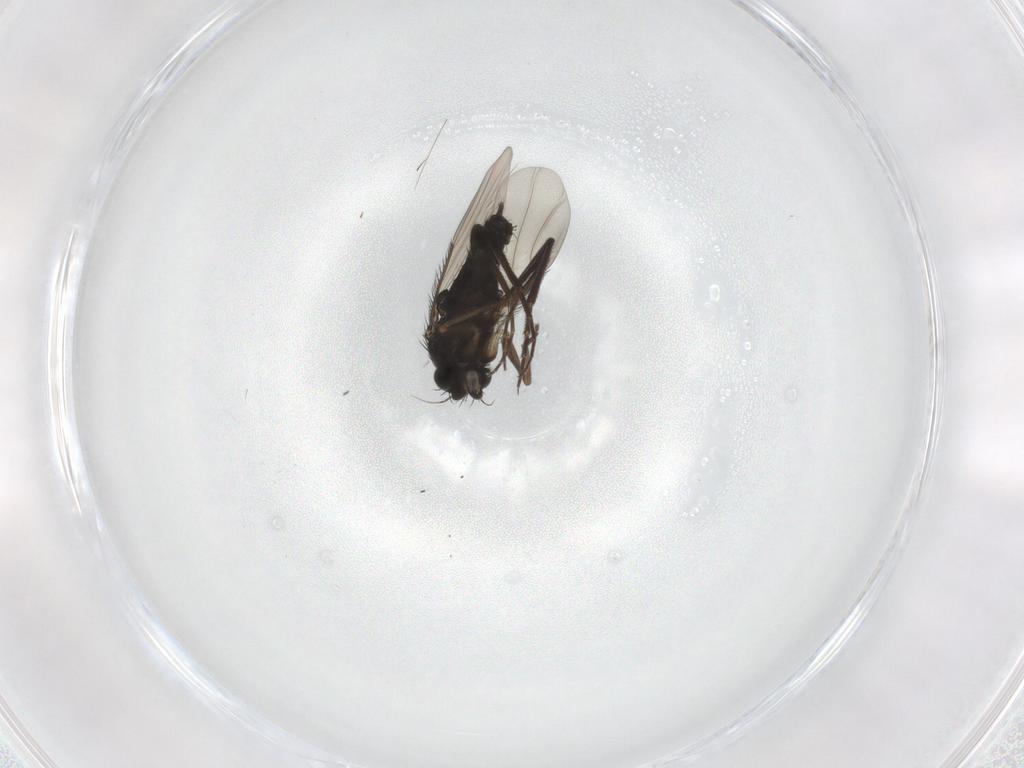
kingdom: Animalia
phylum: Arthropoda
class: Insecta
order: Diptera
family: Phoridae
